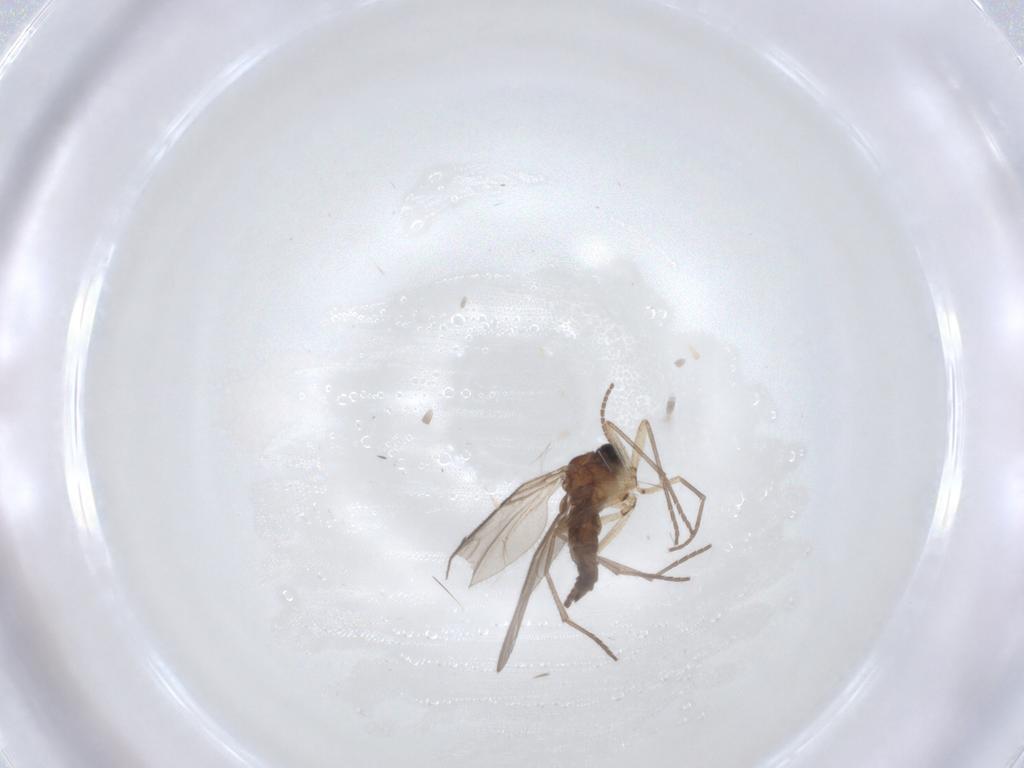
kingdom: Animalia
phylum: Arthropoda
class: Insecta
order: Diptera
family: Sciaridae
